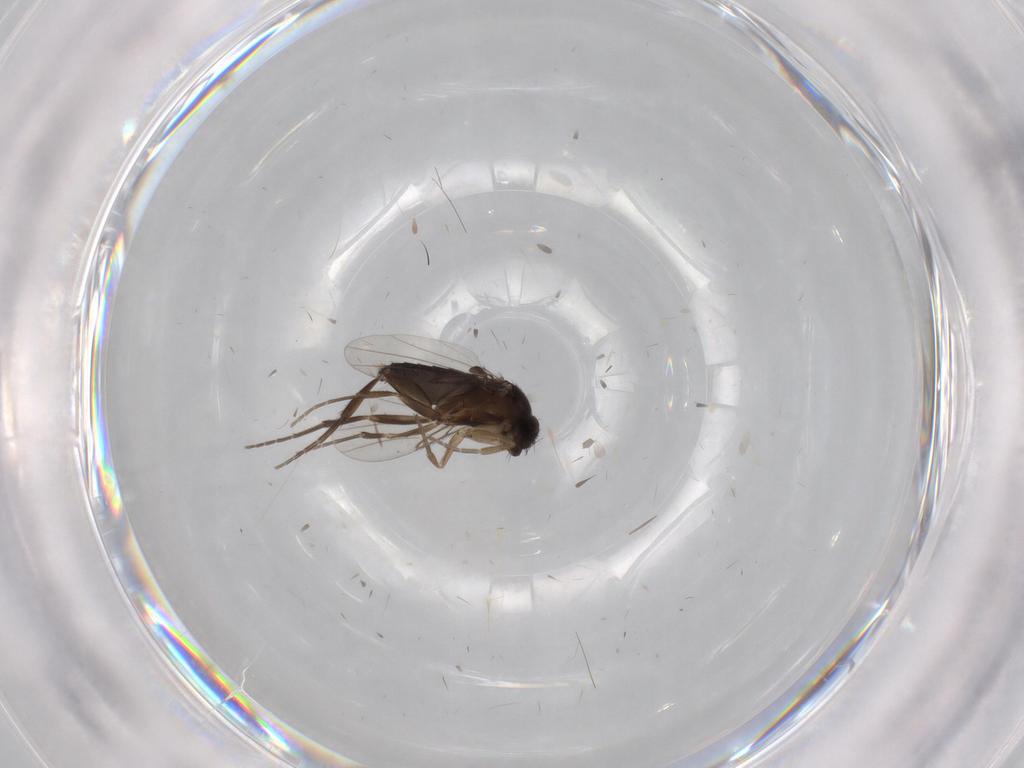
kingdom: Animalia
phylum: Arthropoda
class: Insecta
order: Diptera
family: Phoridae
